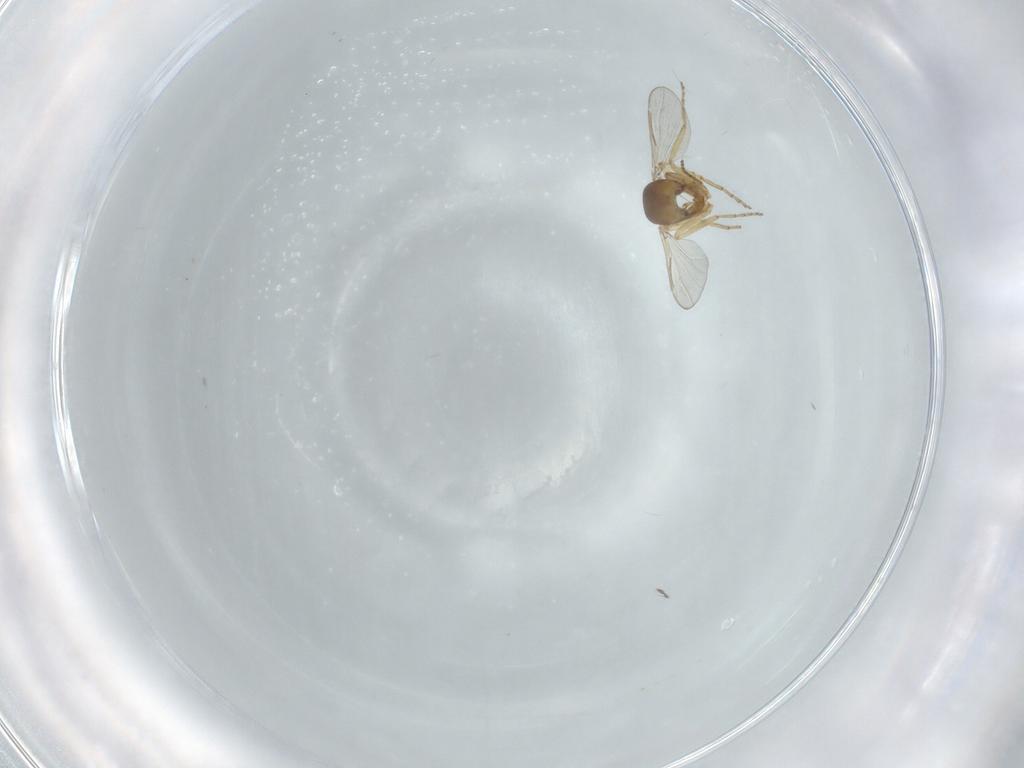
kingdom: Animalia
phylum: Arthropoda
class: Insecta
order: Diptera
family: Ceratopogonidae
